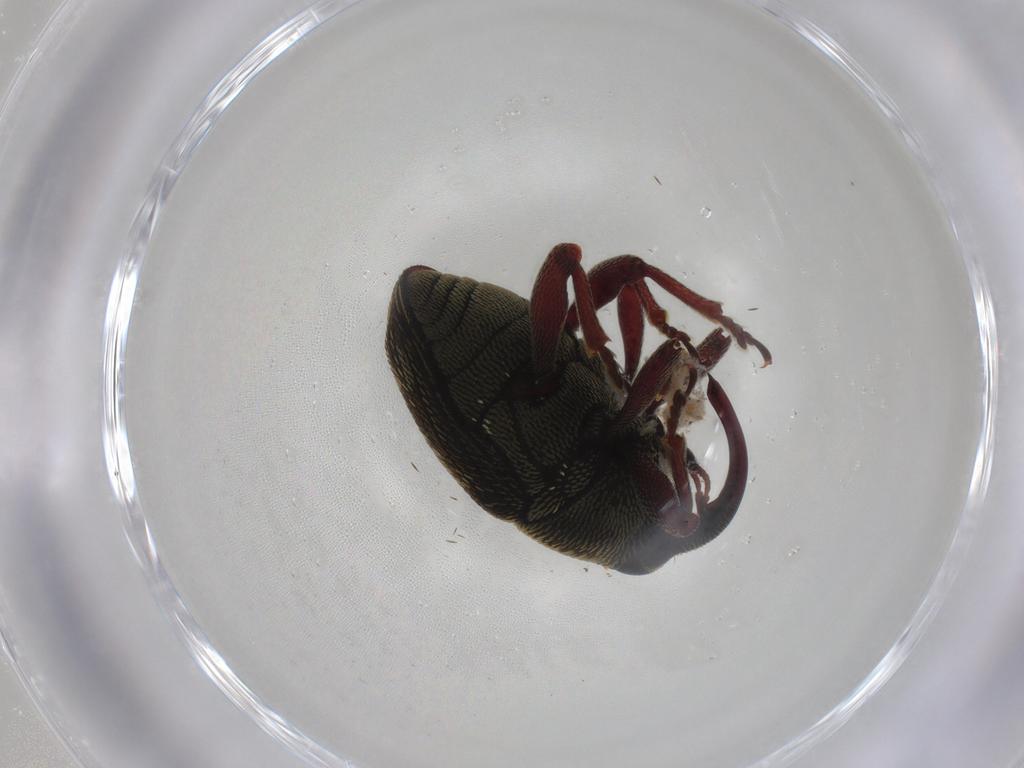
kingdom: Animalia
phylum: Arthropoda
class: Insecta
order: Coleoptera
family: Curculionidae
